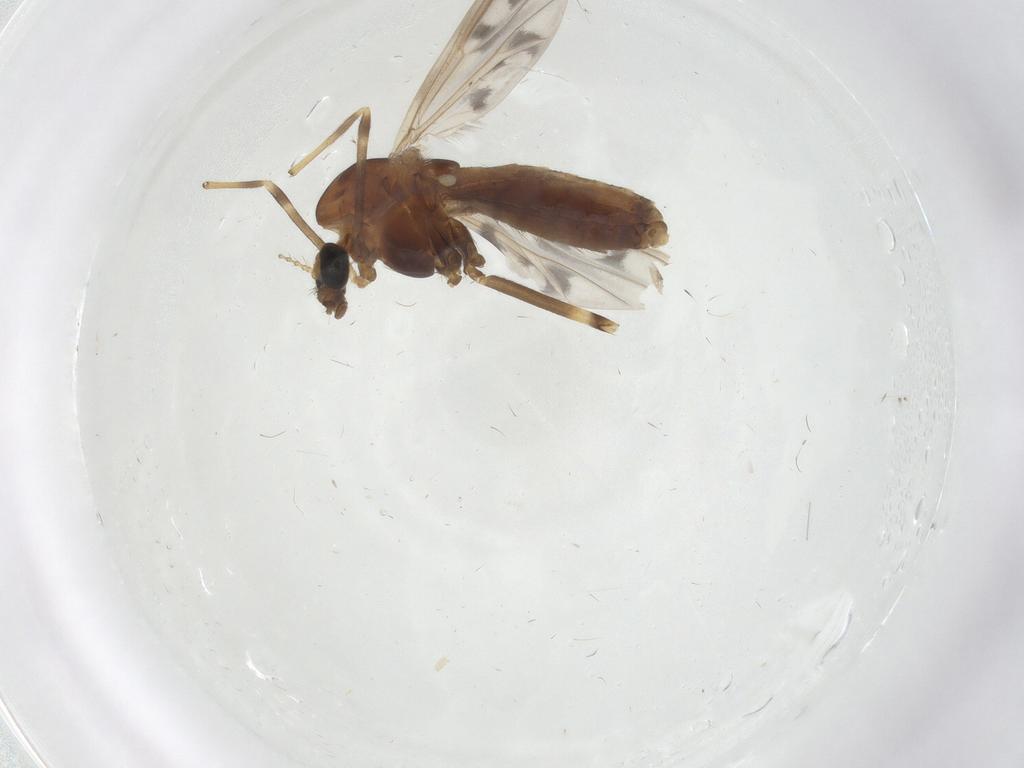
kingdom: Animalia
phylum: Arthropoda
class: Insecta
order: Diptera
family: Chironomidae
